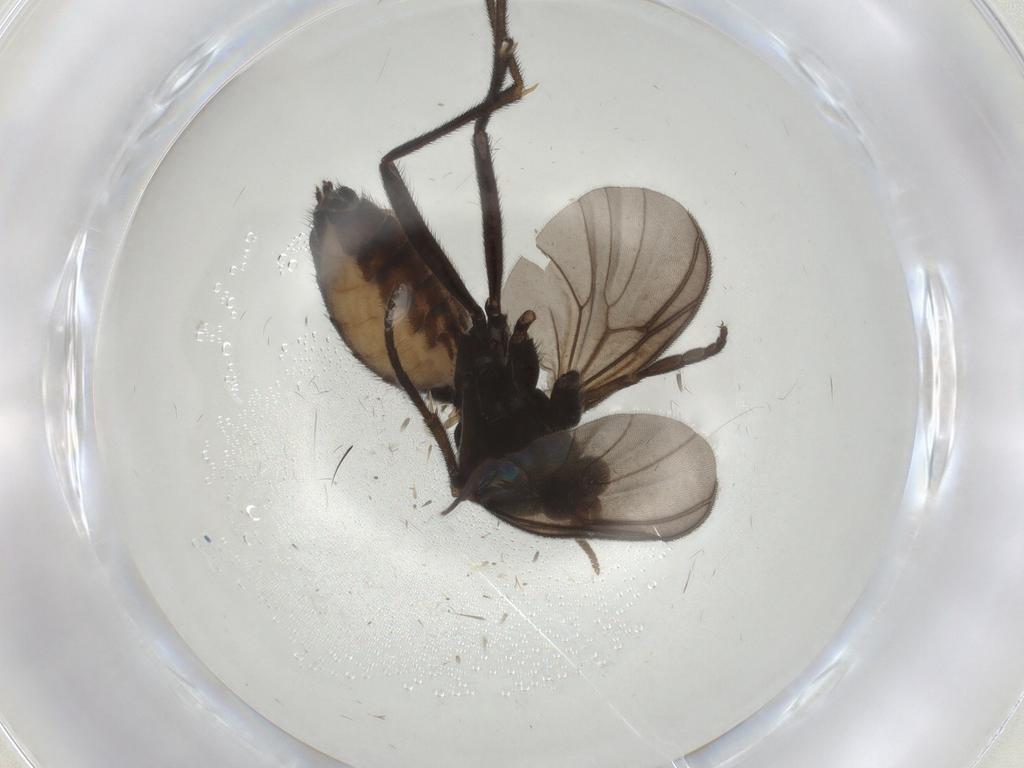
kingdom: Animalia
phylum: Arthropoda
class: Insecta
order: Diptera
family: Mycetophilidae
